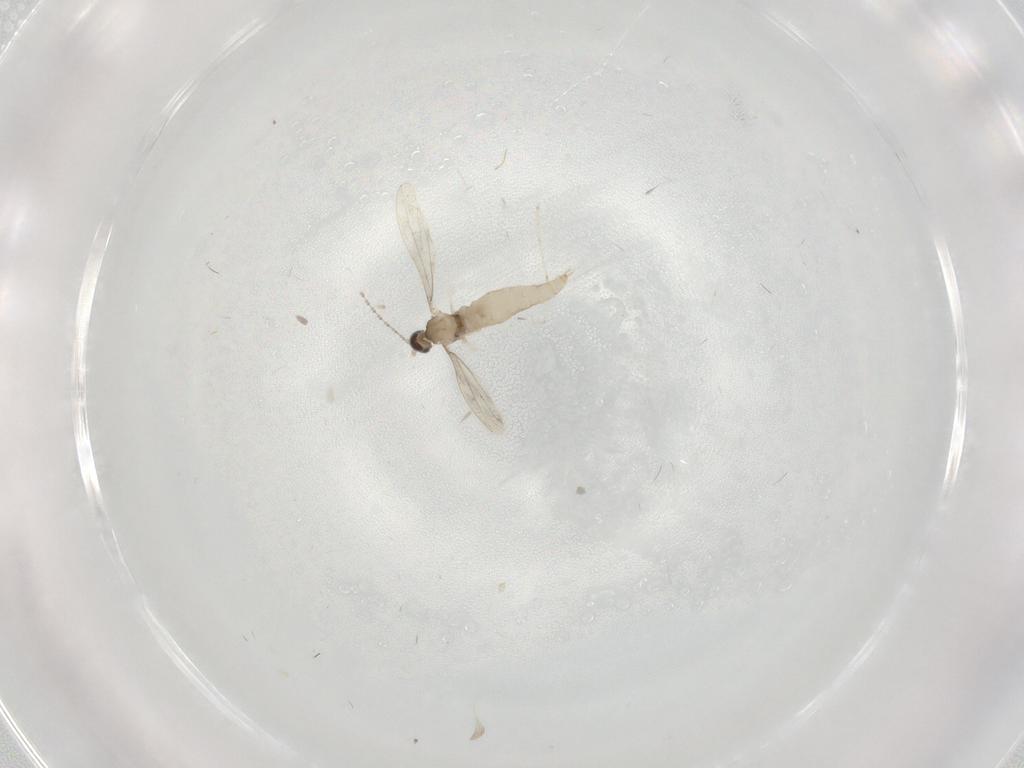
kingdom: Animalia
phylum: Arthropoda
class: Insecta
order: Diptera
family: Cecidomyiidae
